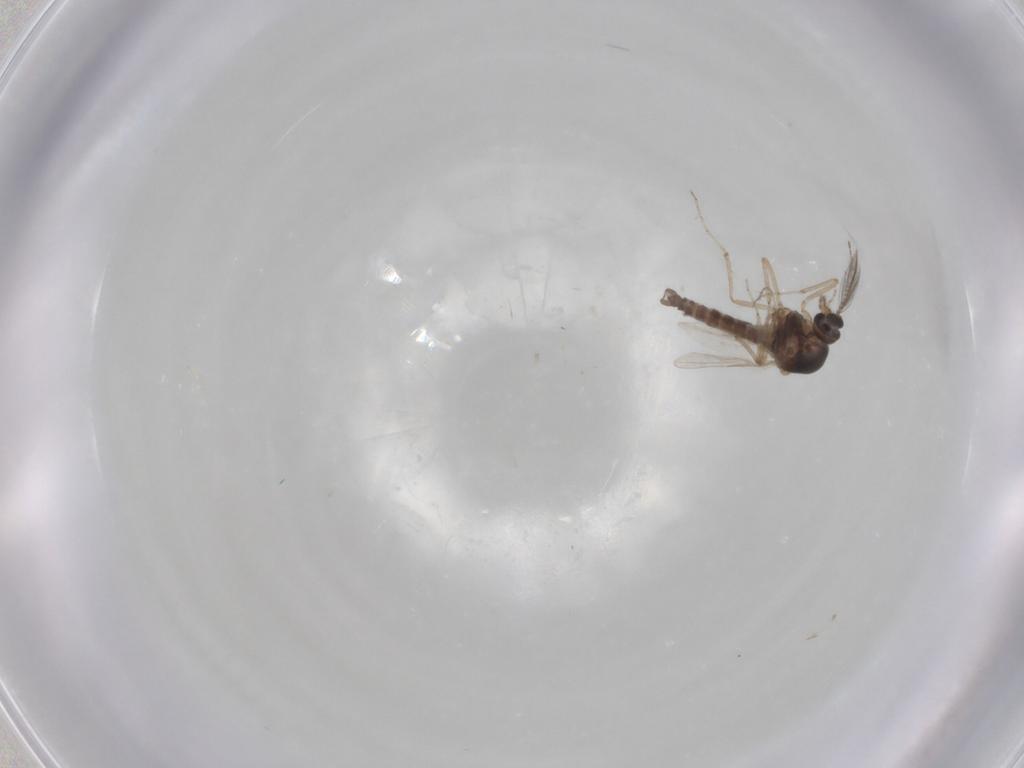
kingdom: Animalia
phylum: Arthropoda
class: Insecta
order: Diptera
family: Ceratopogonidae
